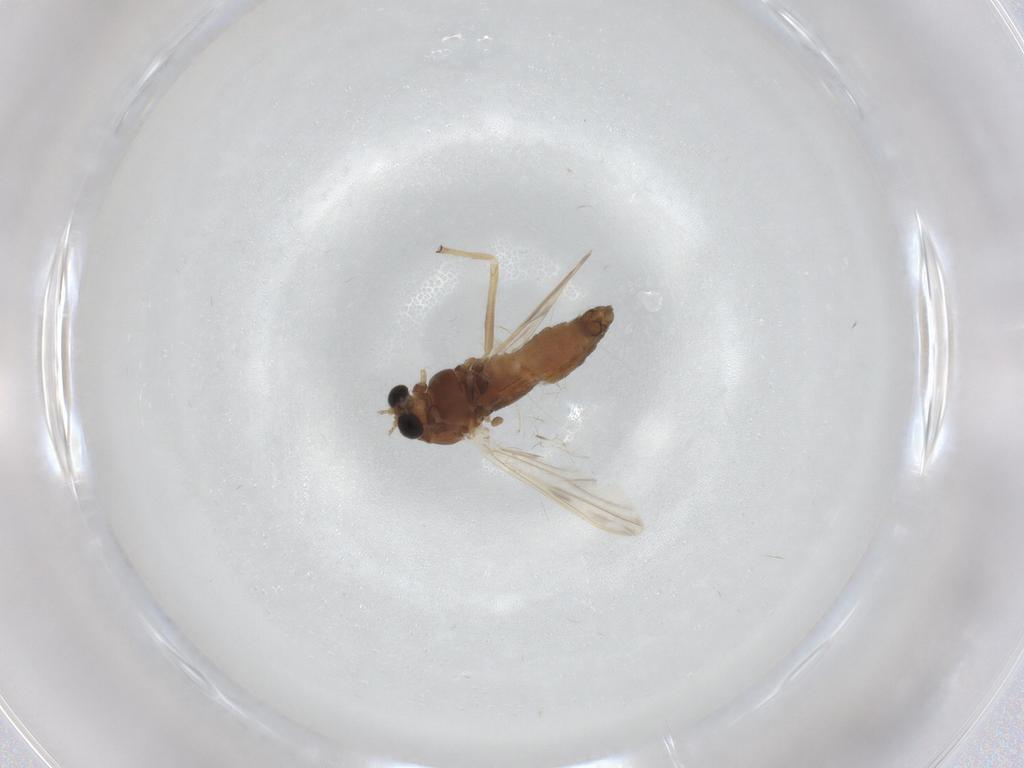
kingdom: Animalia
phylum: Arthropoda
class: Insecta
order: Diptera
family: Chironomidae
